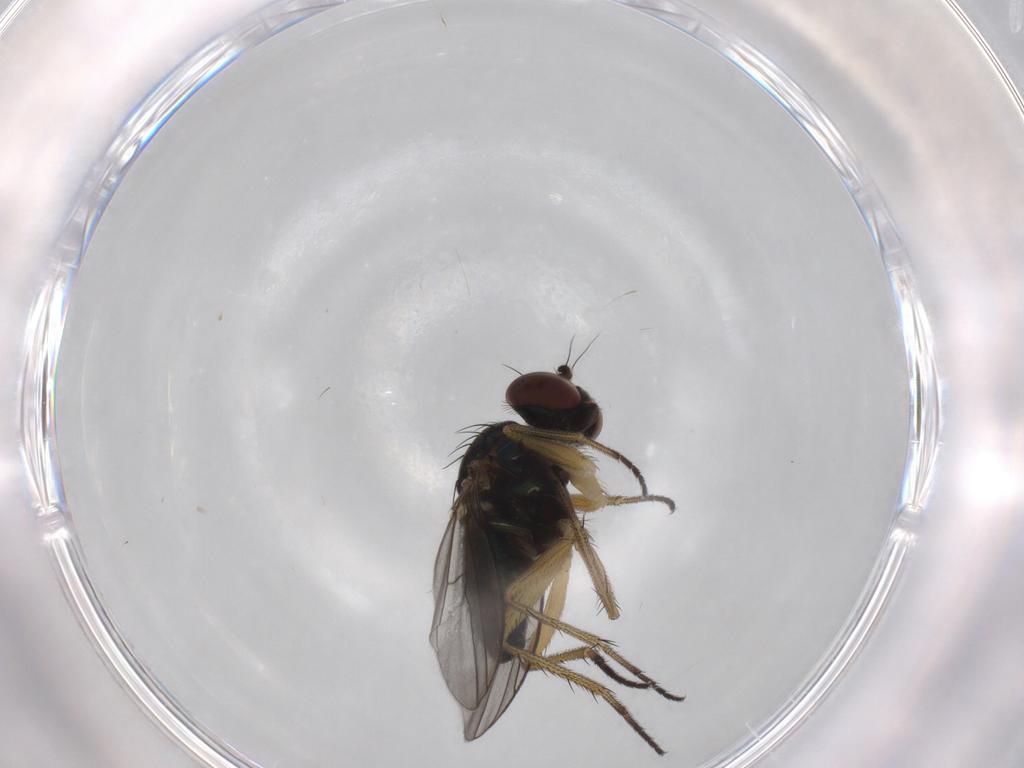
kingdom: Animalia
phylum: Arthropoda
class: Insecta
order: Diptera
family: Dolichopodidae
